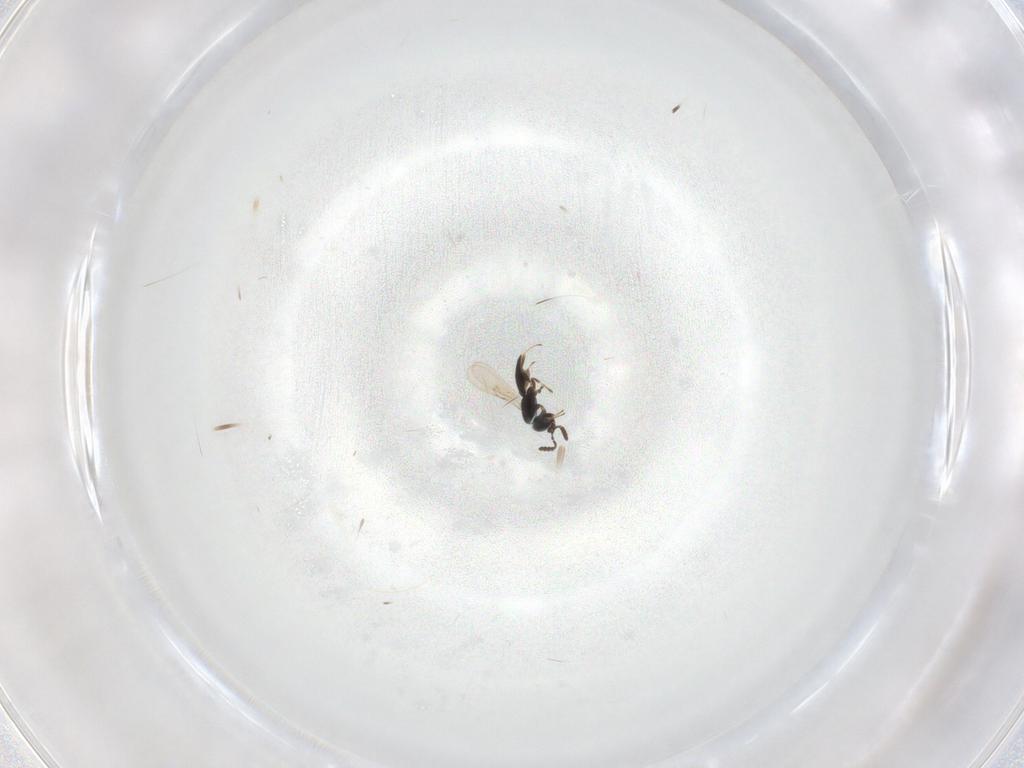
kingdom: Animalia
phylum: Arthropoda
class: Insecta
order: Hymenoptera
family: Scelionidae
